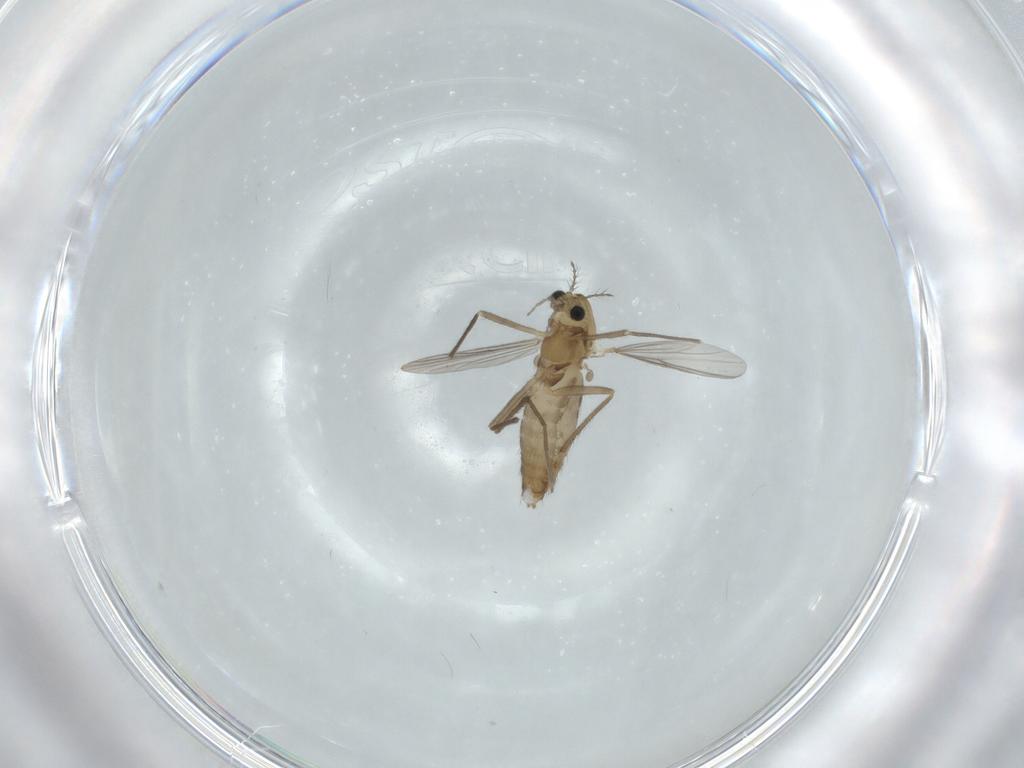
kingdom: Animalia
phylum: Arthropoda
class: Insecta
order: Diptera
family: Chironomidae
